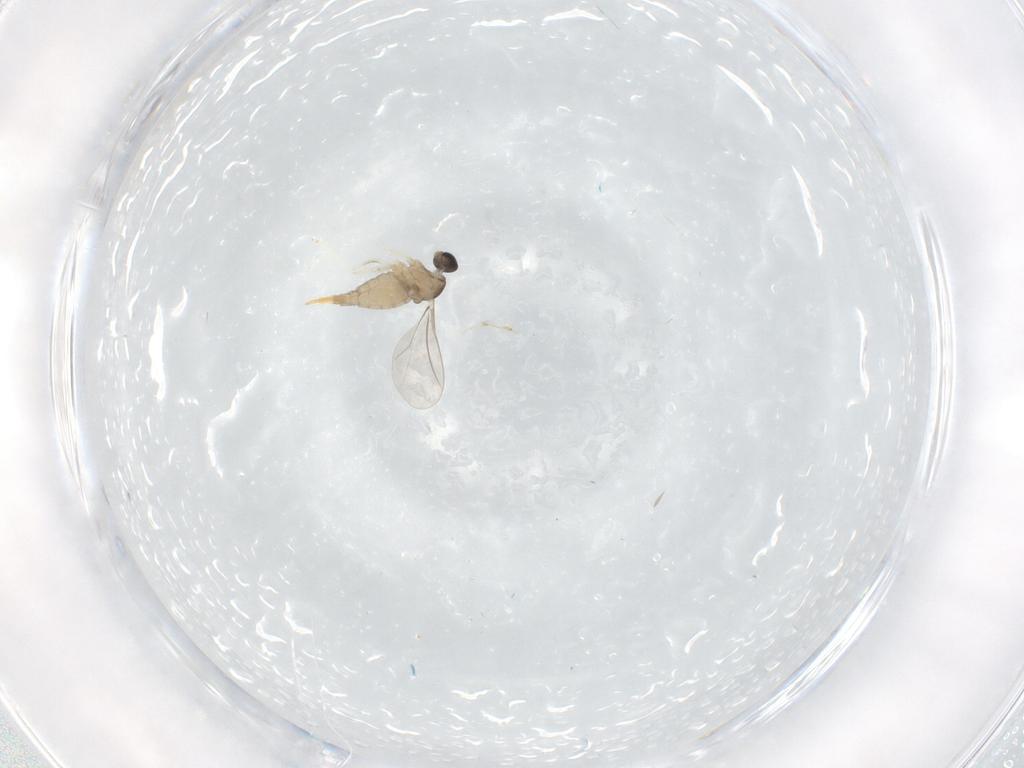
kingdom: Animalia
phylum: Arthropoda
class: Insecta
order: Diptera
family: Cecidomyiidae
